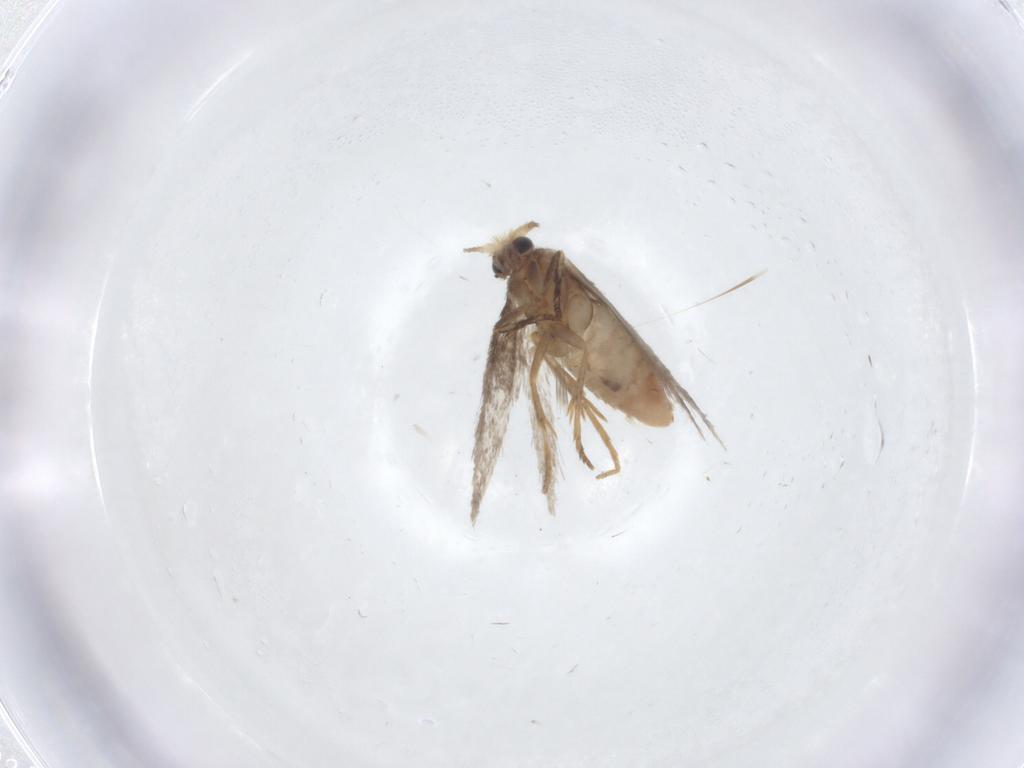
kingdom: Animalia
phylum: Arthropoda
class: Insecta
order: Lepidoptera
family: Nepticulidae
